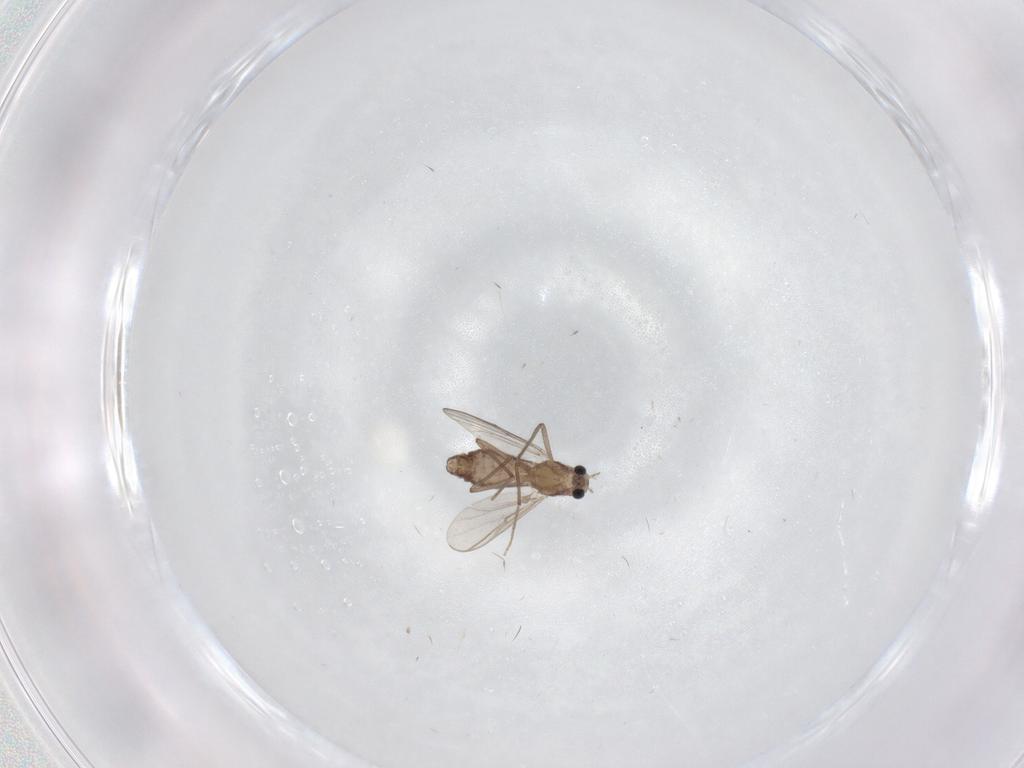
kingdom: Animalia
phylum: Arthropoda
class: Insecta
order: Diptera
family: Chironomidae
